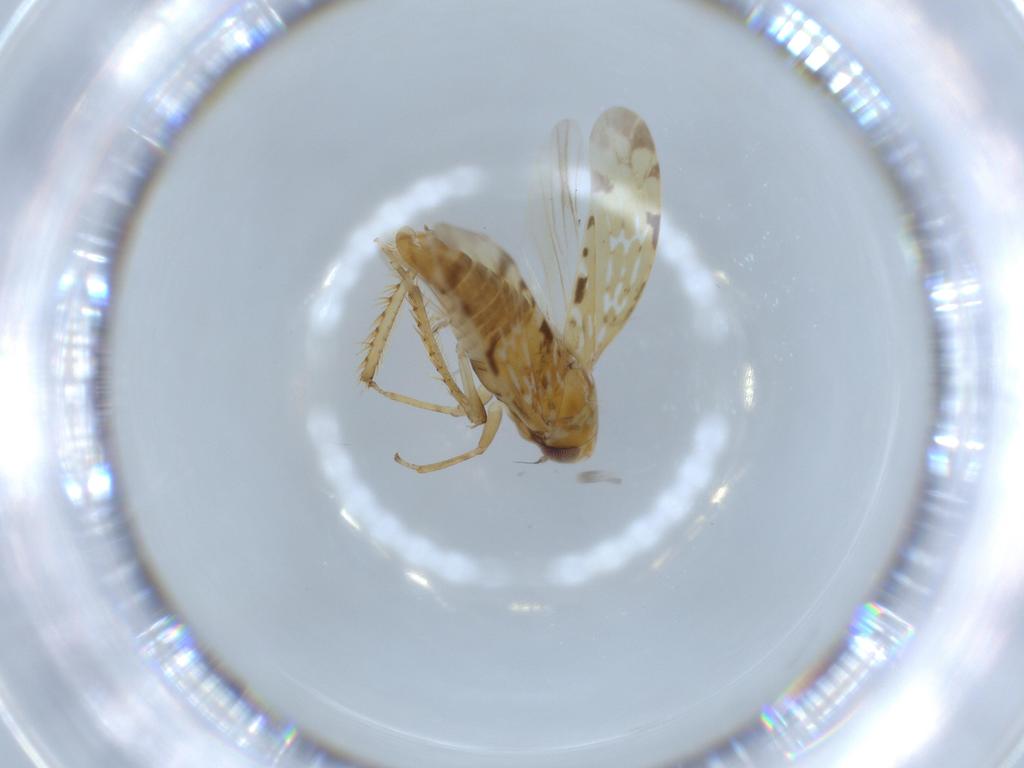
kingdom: Animalia
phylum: Arthropoda
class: Insecta
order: Hemiptera
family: Cicadellidae
